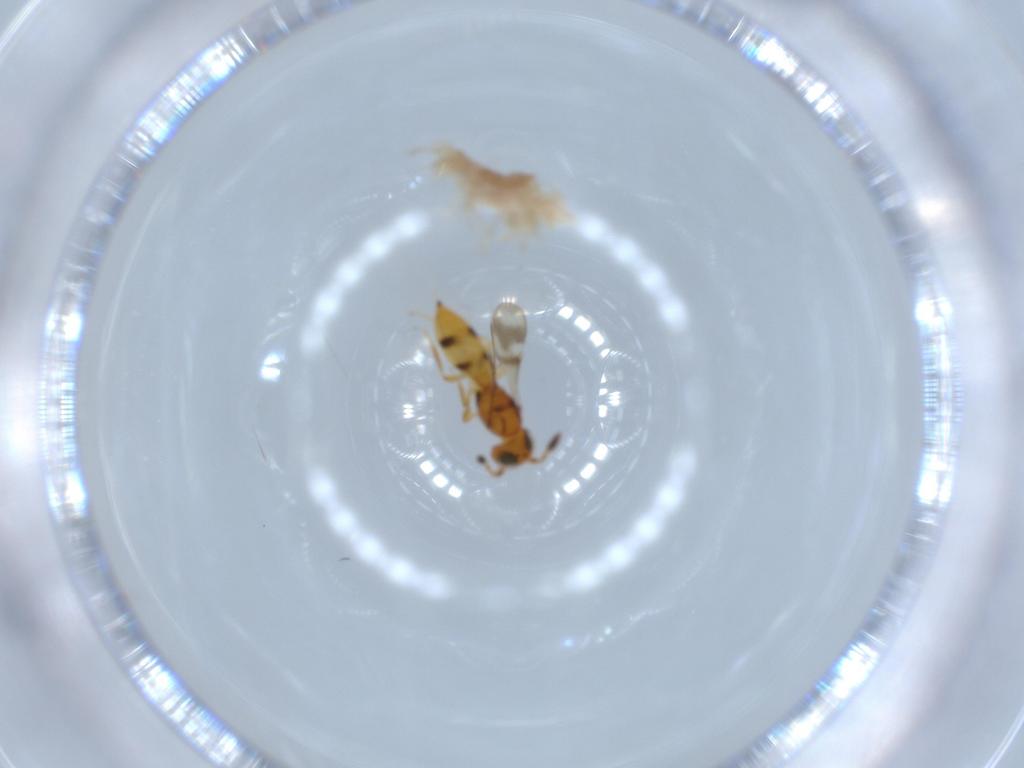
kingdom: Animalia
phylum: Arthropoda
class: Insecta
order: Hymenoptera
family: Scelionidae
